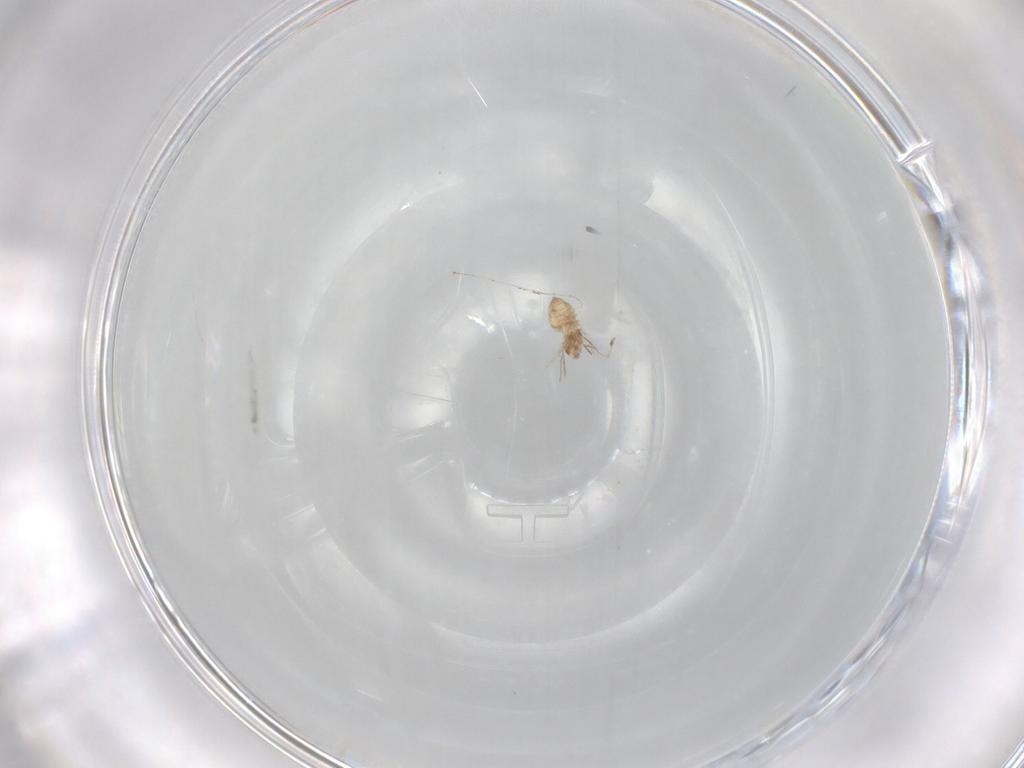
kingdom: Animalia
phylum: Arthropoda
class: Insecta
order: Diptera
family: Cecidomyiidae
